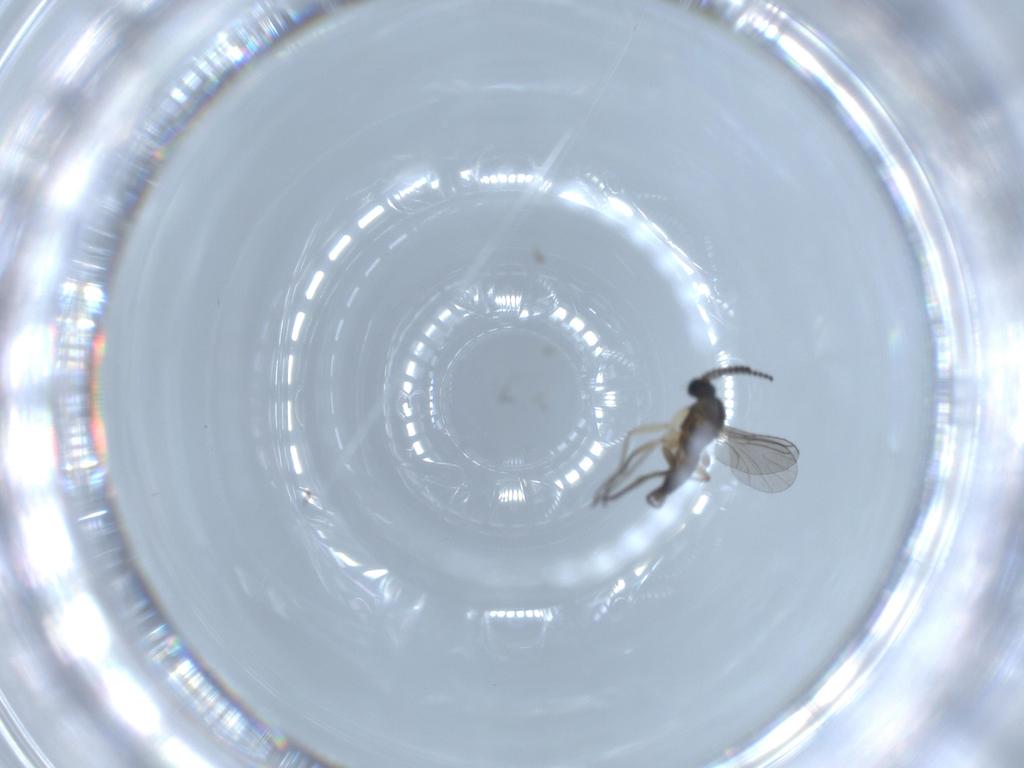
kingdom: Animalia
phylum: Arthropoda
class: Insecta
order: Diptera
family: Sciaridae
